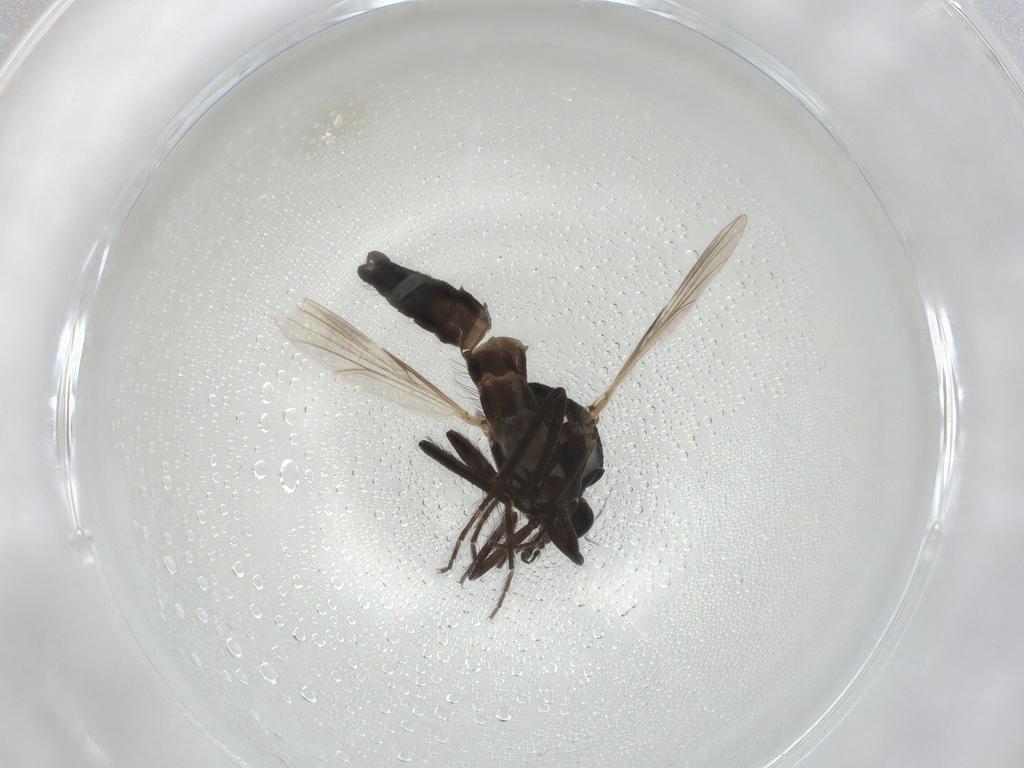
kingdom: Animalia
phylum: Arthropoda
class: Insecta
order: Diptera
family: Ceratopogonidae
